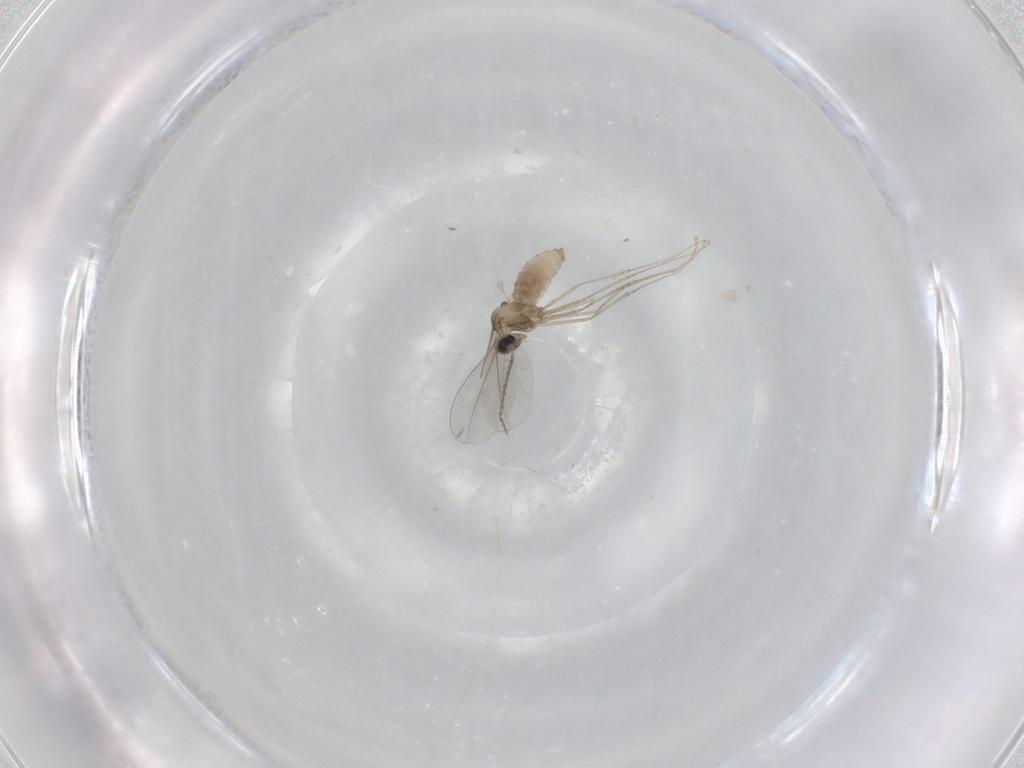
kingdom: Animalia
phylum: Arthropoda
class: Insecta
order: Diptera
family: Cecidomyiidae
